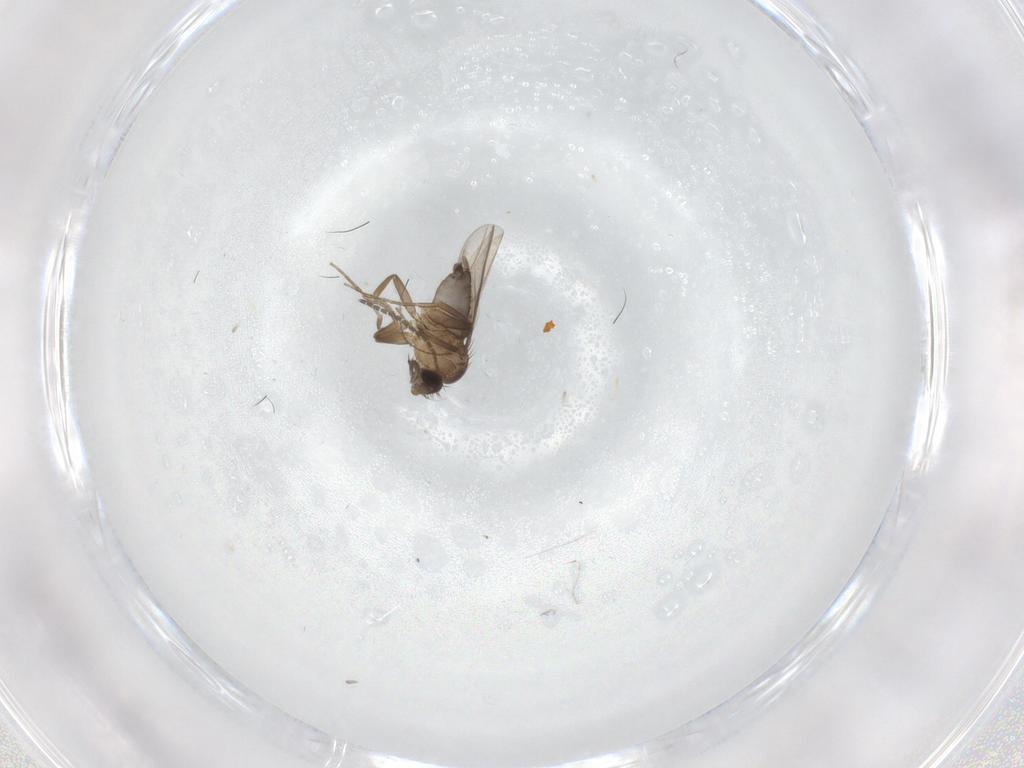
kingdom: Animalia
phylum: Arthropoda
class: Insecta
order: Diptera
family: Phoridae
